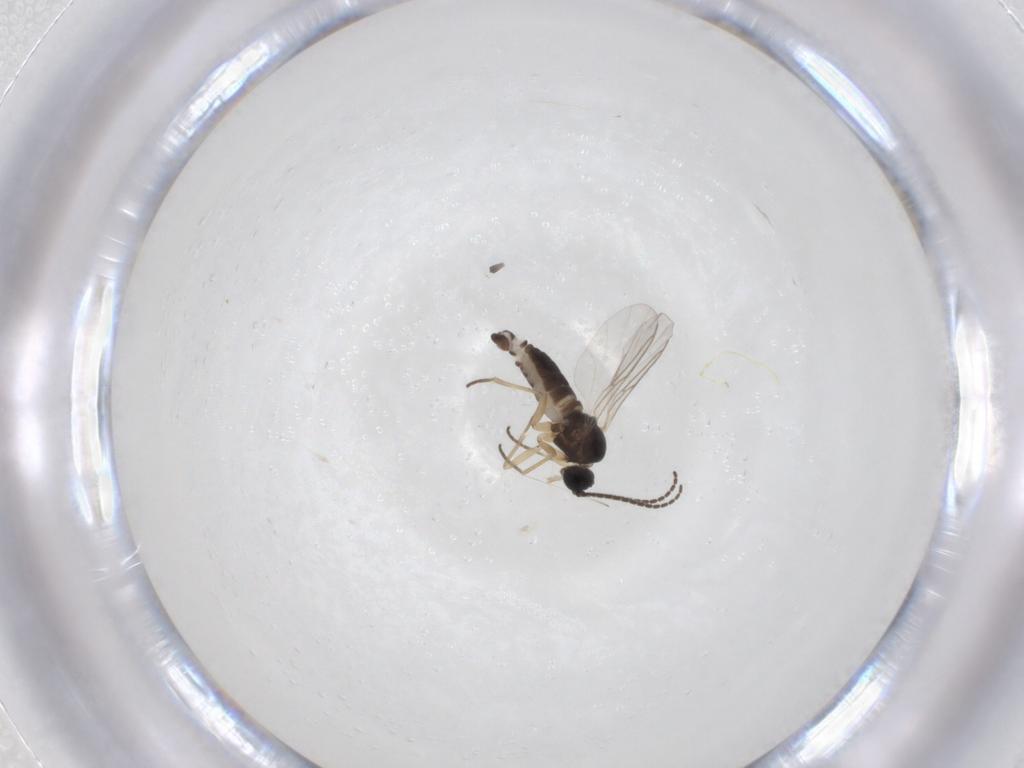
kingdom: Animalia
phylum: Arthropoda
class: Insecta
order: Diptera
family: Sciaridae
